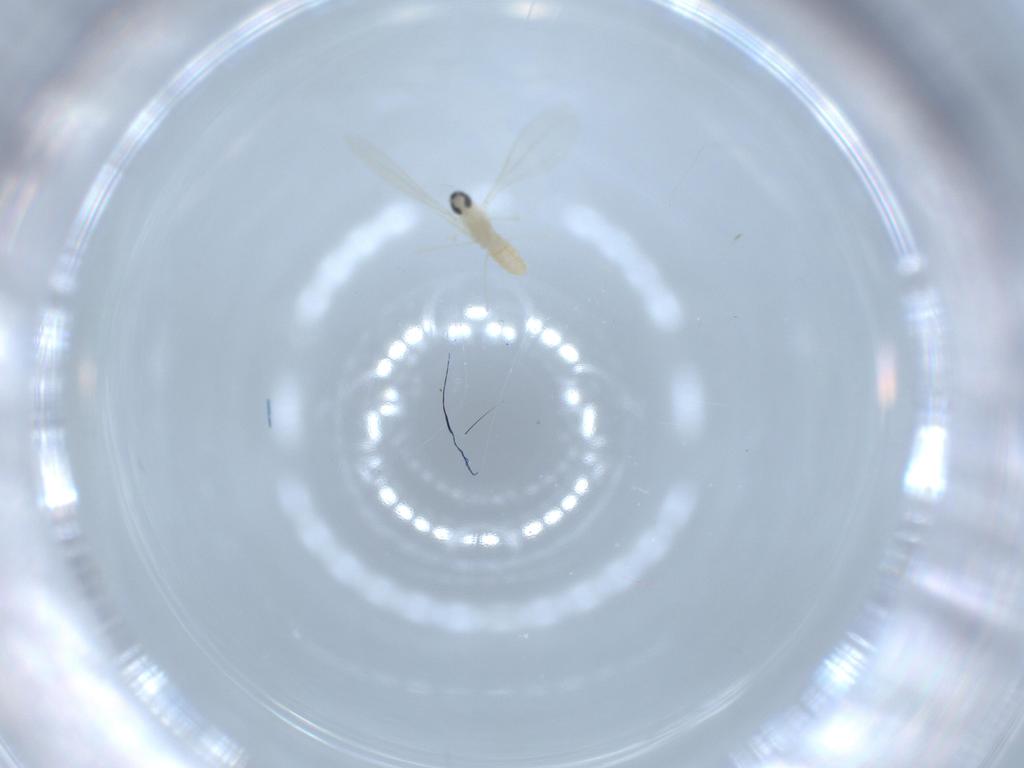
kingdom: Animalia
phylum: Arthropoda
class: Insecta
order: Diptera
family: Cecidomyiidae
